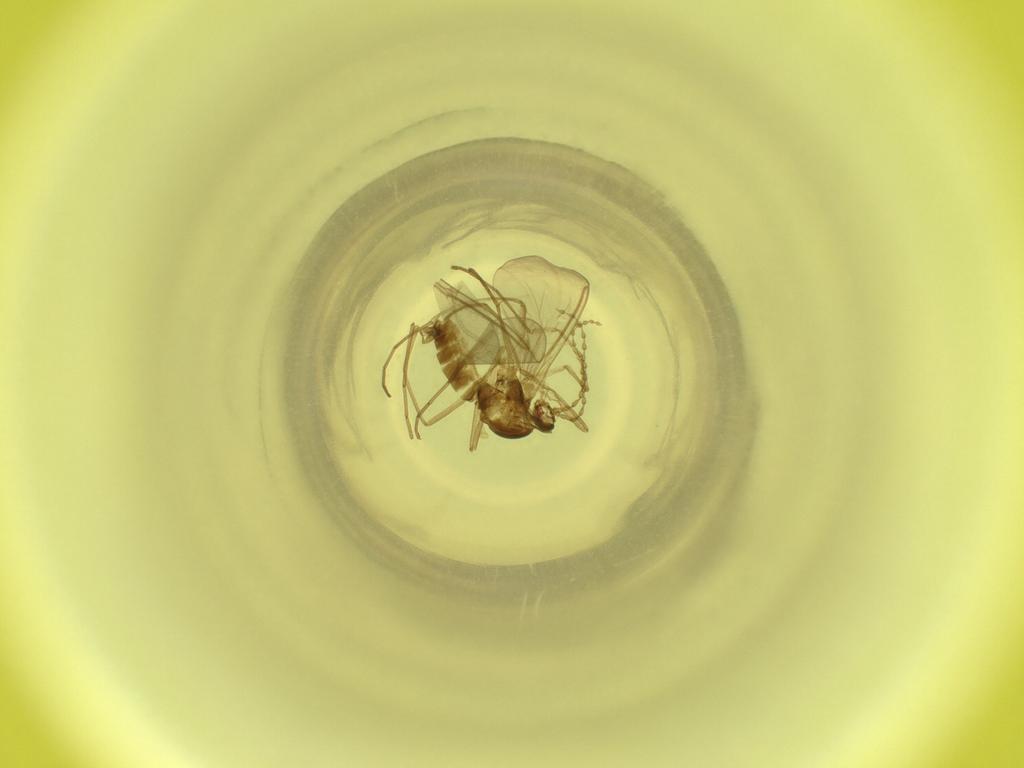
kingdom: Animalia
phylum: Arthropoda
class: Insecta
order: Diptera
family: Cecidomyiidae
